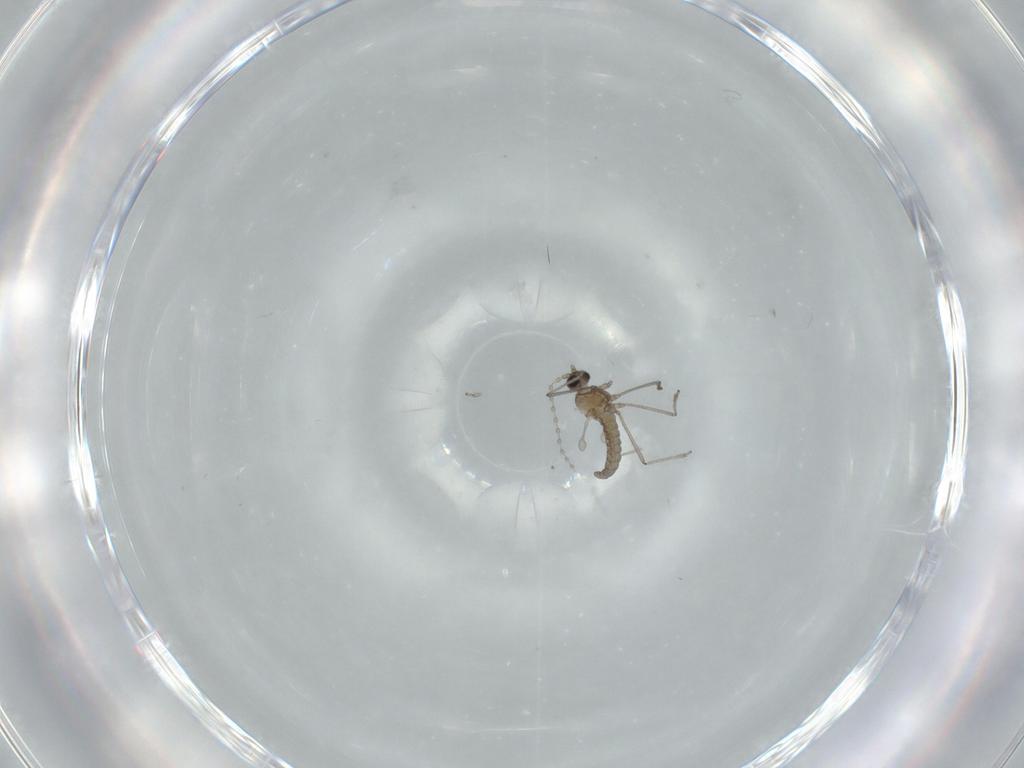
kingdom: Animalia
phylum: Arthropoda
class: Insecta
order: Diptera
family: Cecidomyiidae
